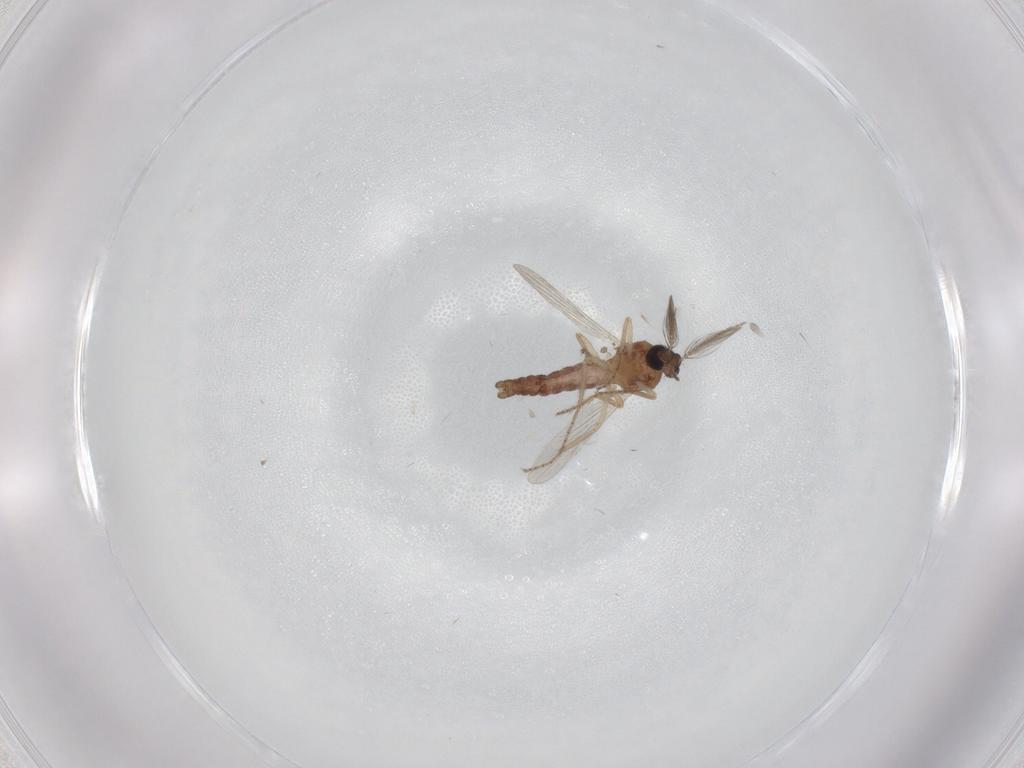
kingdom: Animalia
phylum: Arthropoda
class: Insecta
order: Diptera
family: Ceratopogonidae
